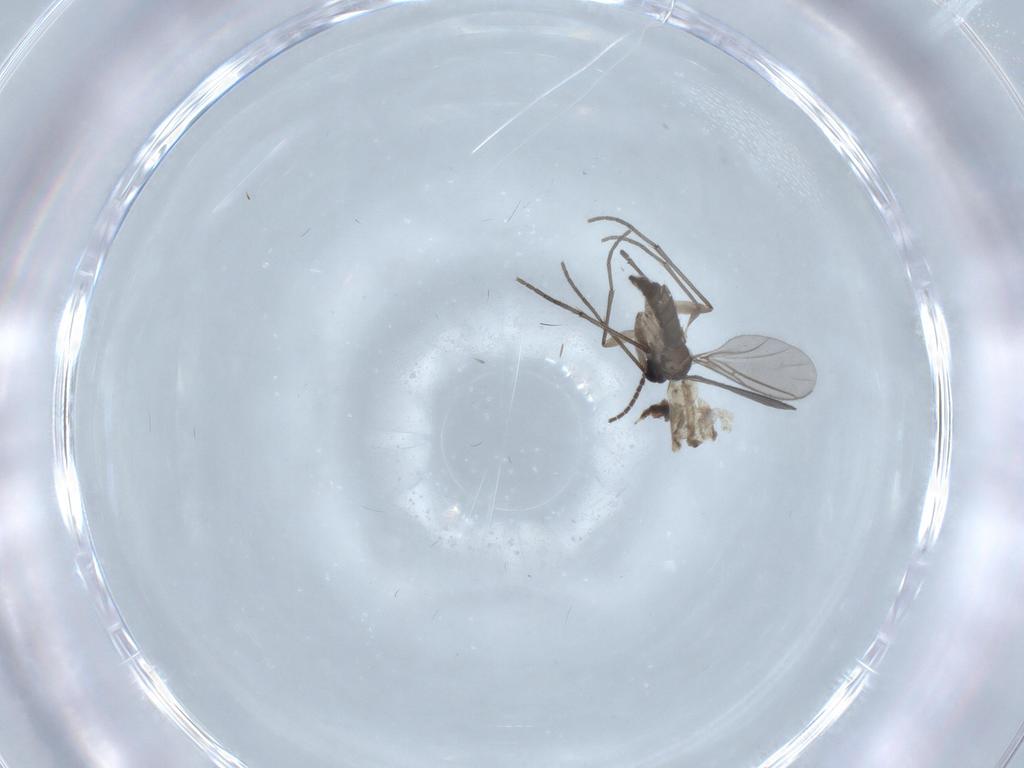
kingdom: Animalia
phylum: Arthropoda
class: Insecta
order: Diptera
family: Sciaridae
